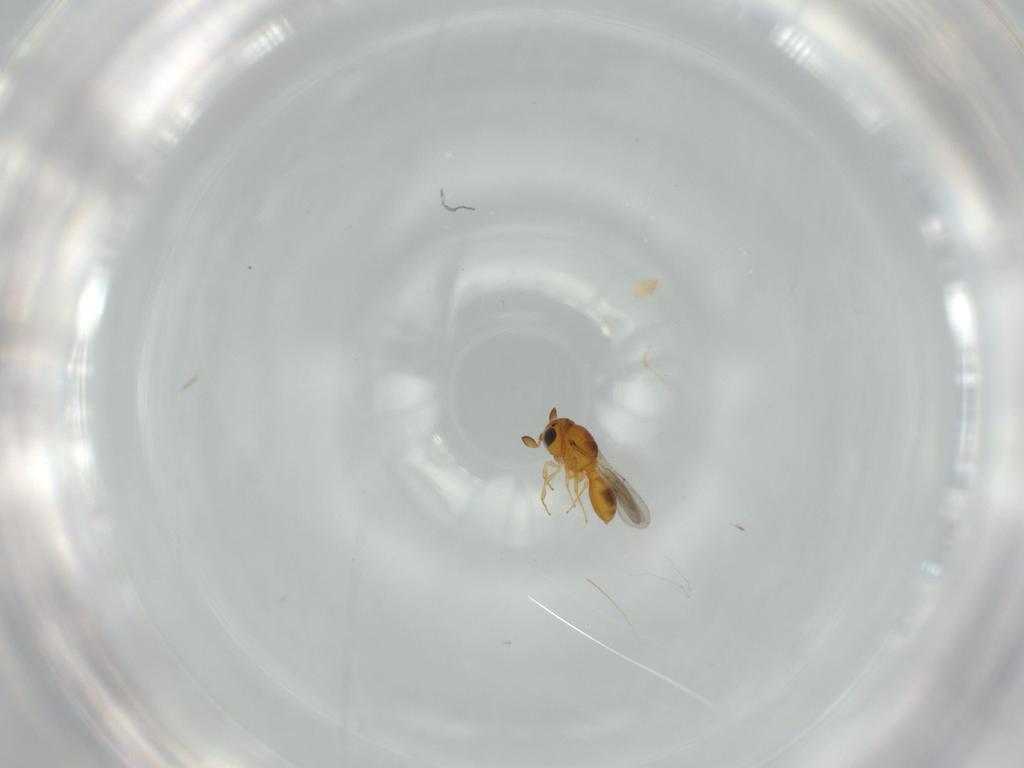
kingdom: Animalia
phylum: Arthropoda
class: Insecta
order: Hymenoptera
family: Scelionidae
